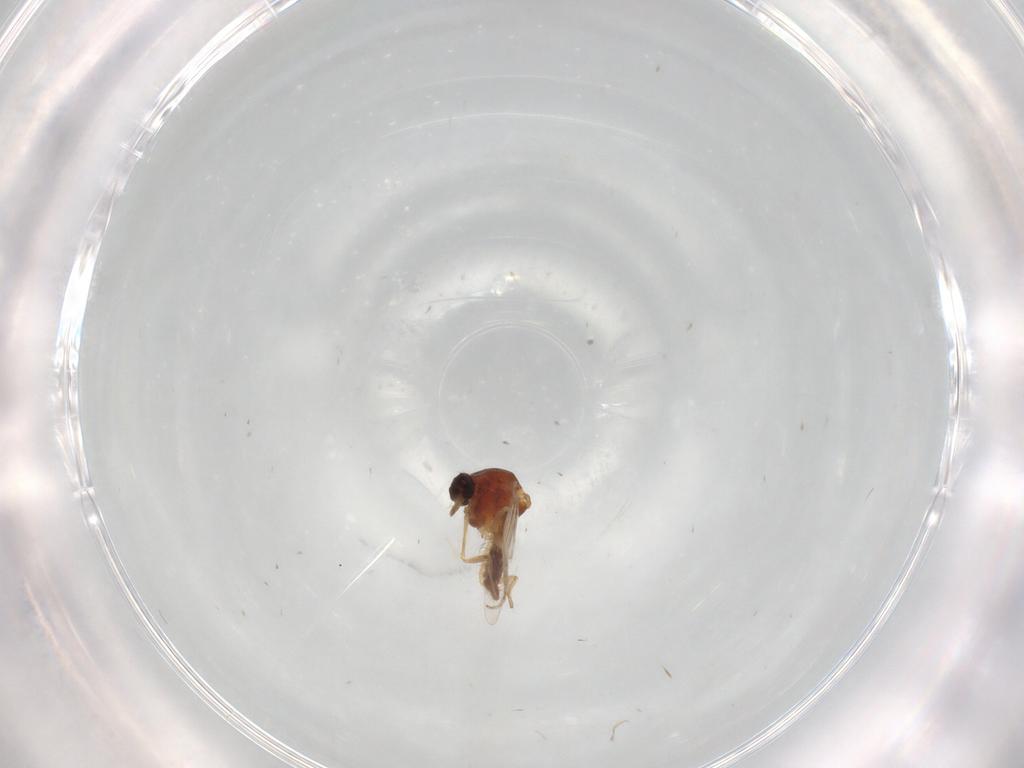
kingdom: Animalia
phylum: Arthropoda
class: Insecta
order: Diptera
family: Ceratopogonidae
